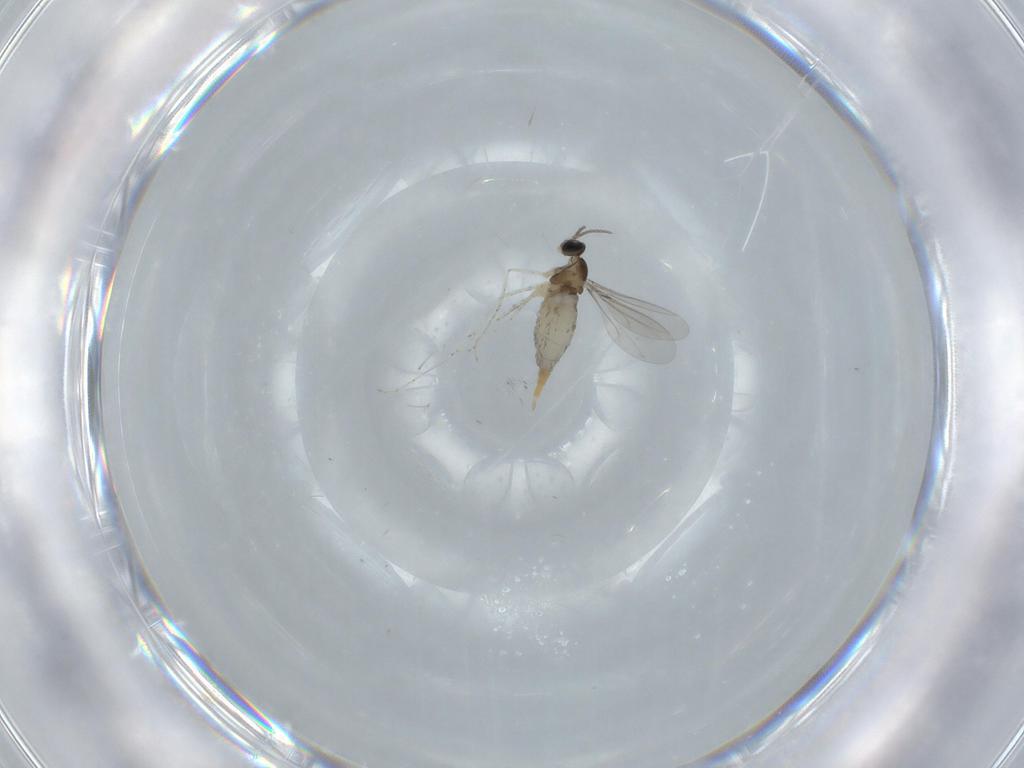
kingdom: Animalia
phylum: Arthropoda
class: Insecta
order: Diptera
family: Cecidomyiidae
